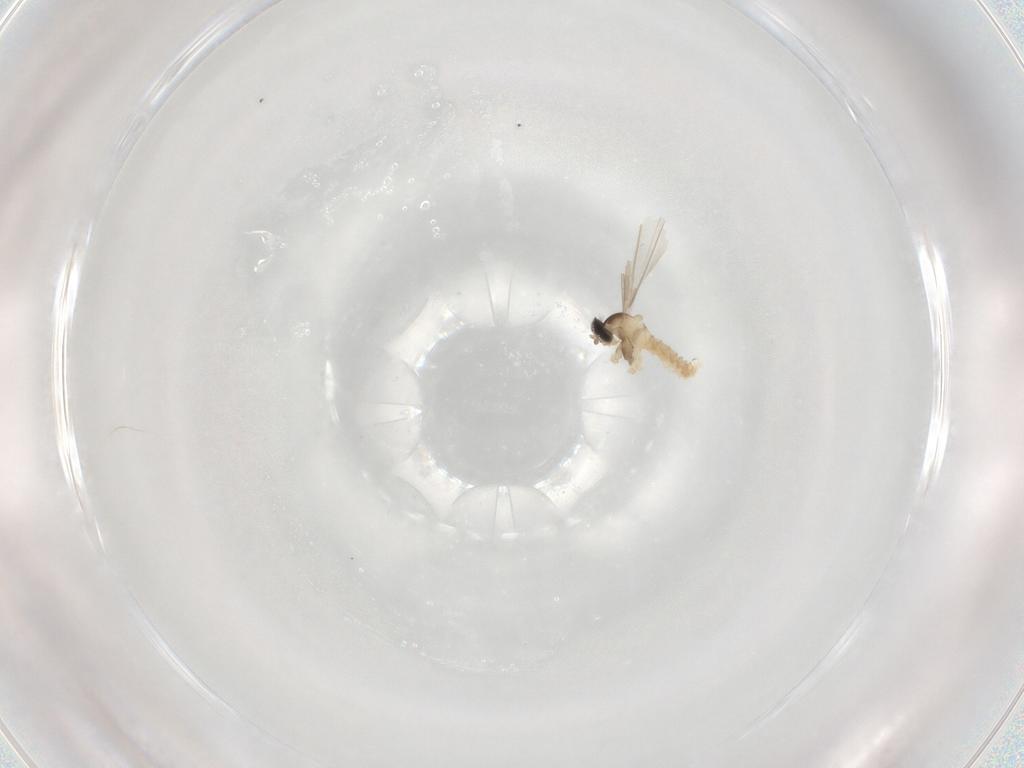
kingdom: Animalia
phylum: Arthropoda
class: Insecta
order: Diptera
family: Cecidomyiidae
